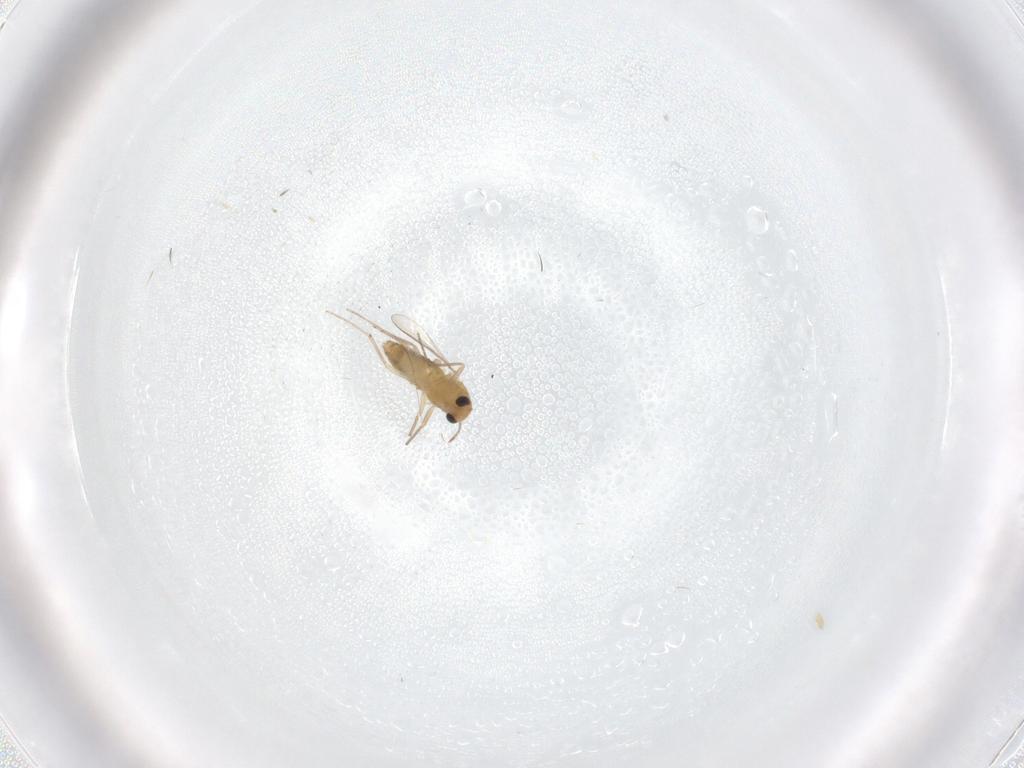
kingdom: Animalia
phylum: Arthropoda
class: Insecta
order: Diptera
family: Chironomidae
